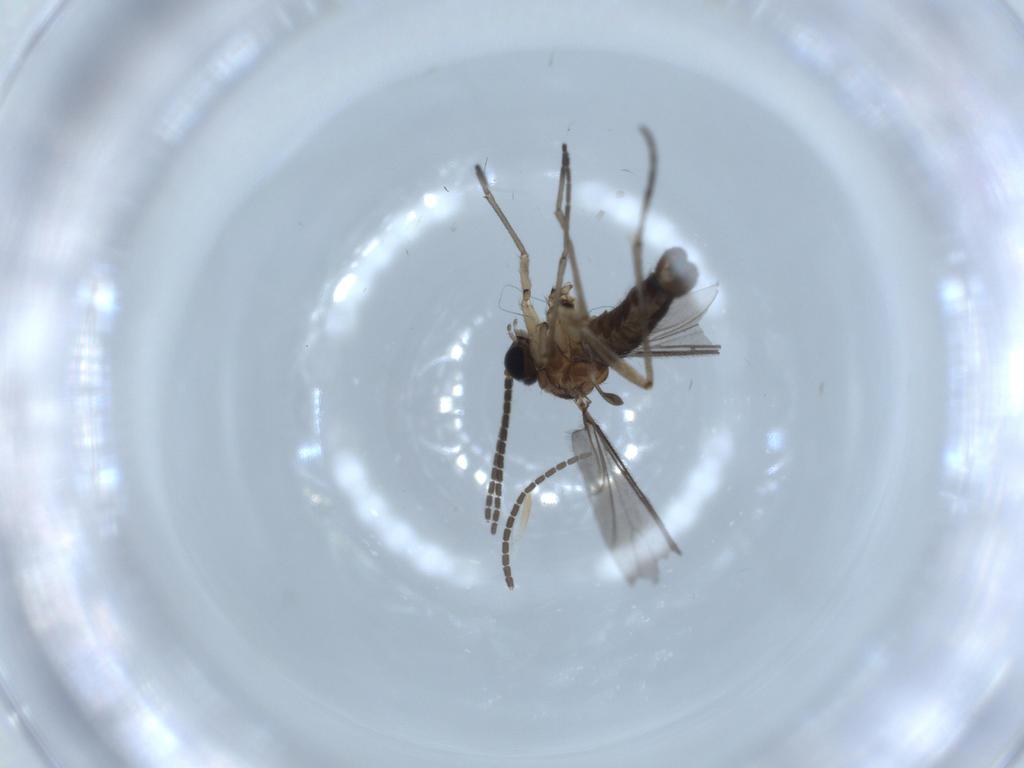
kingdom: Animalia
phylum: Arthropoda
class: Insecta
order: Diptera
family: Sciaridae
